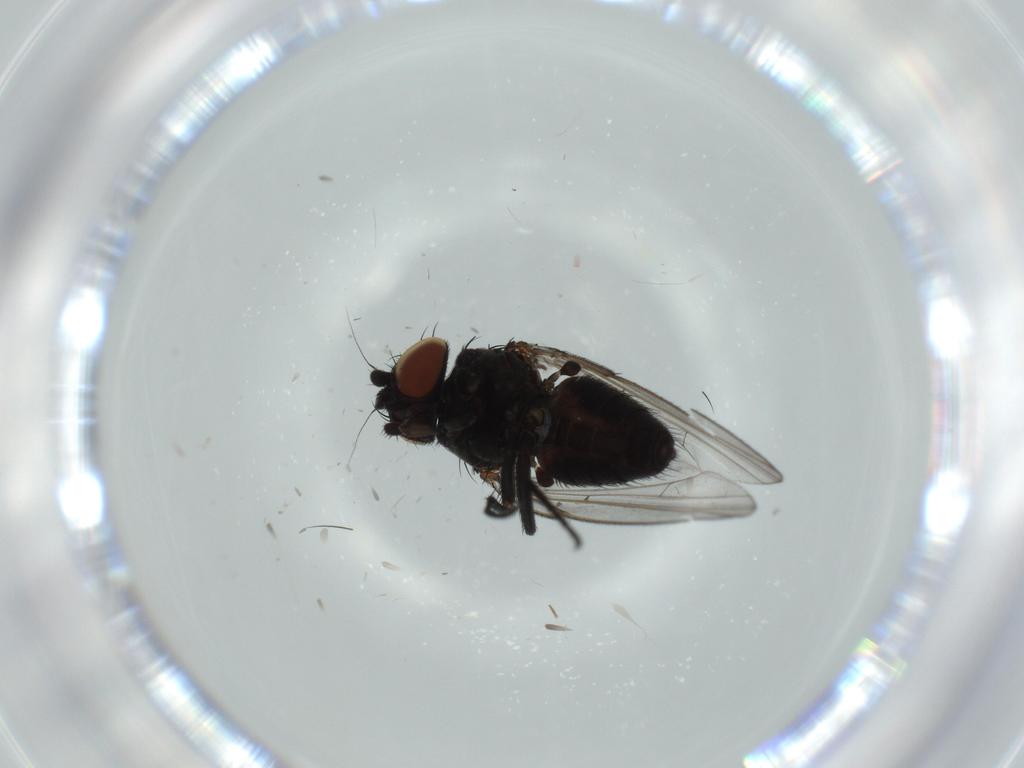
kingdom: Animalia
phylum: Arthropoda
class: Insecta
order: Diptera
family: Milichiidae
